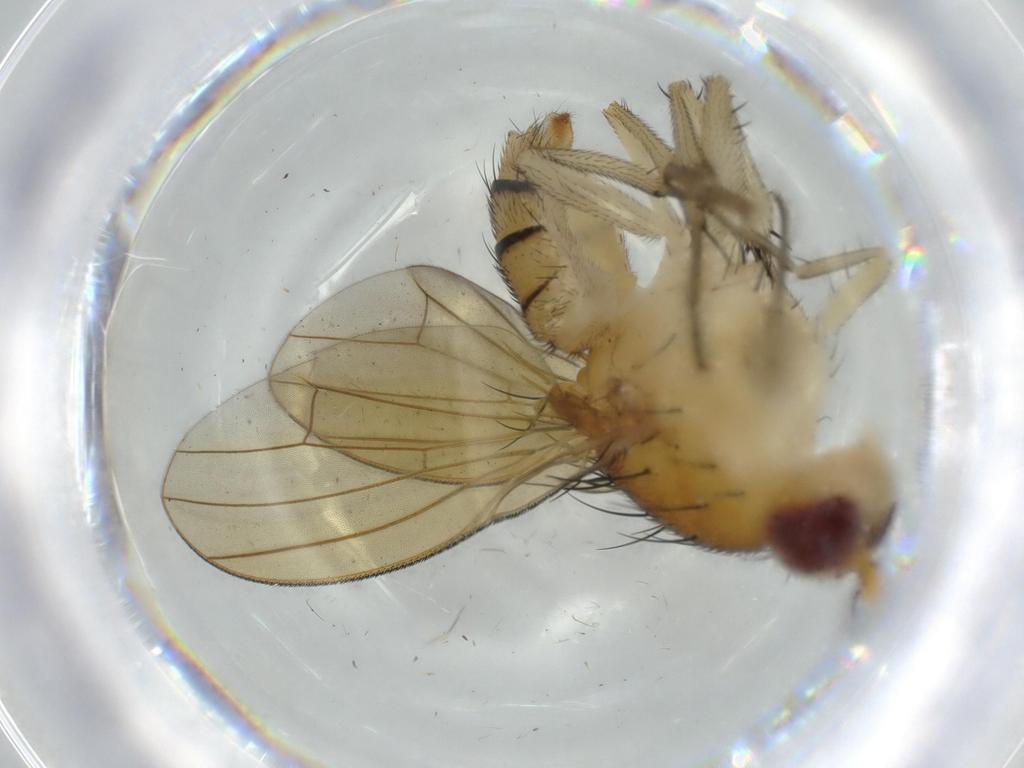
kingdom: Animalia
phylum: Arthropoda
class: Insecta
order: Diptera
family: Lauxaniidae
